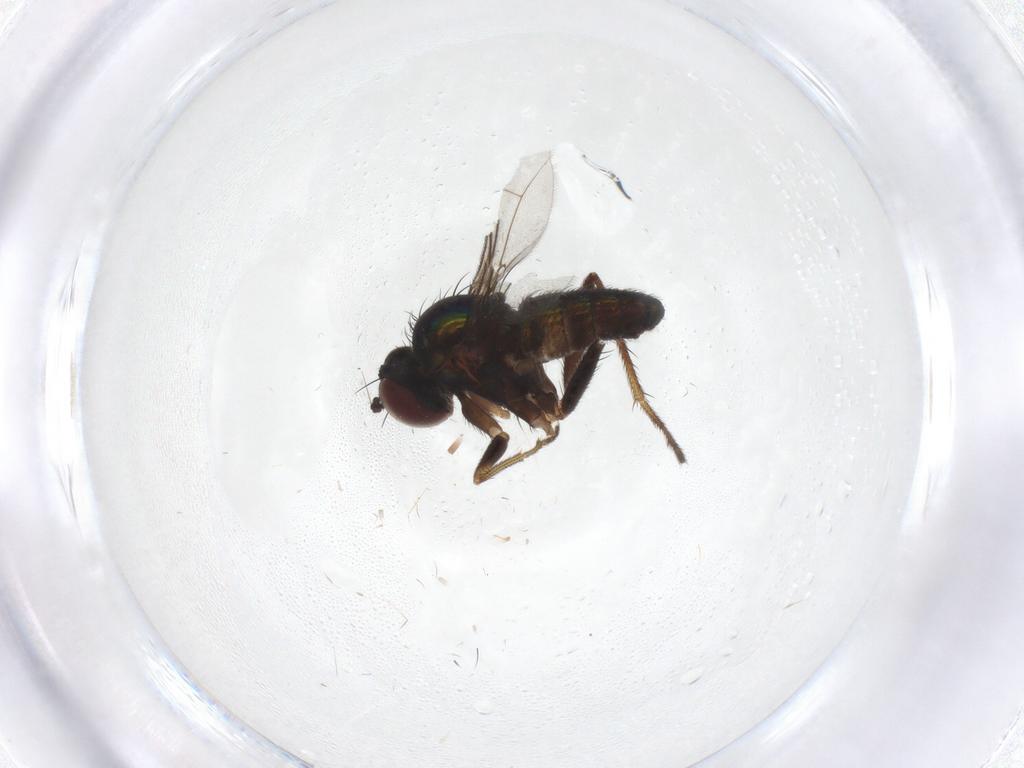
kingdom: Animalia
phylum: Arthropoda
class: Insecta
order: Diptera
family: Dolichopodidae
